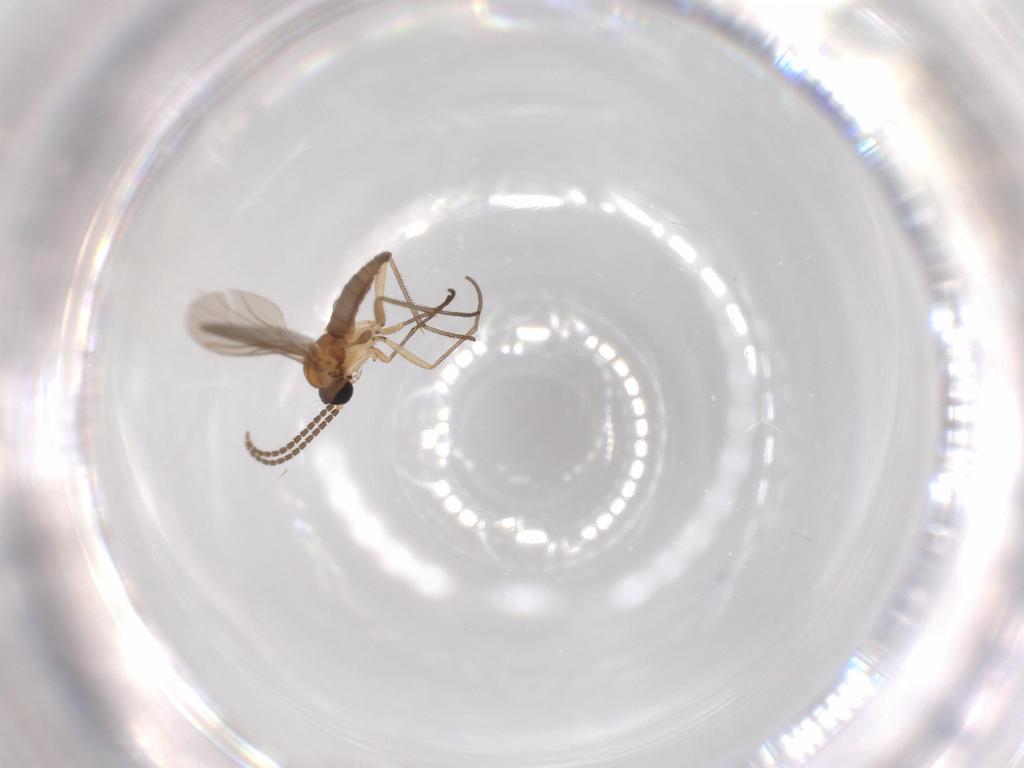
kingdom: Animalia
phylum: Arthropoda
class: Insecta
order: Diptera
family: Sciaridae
